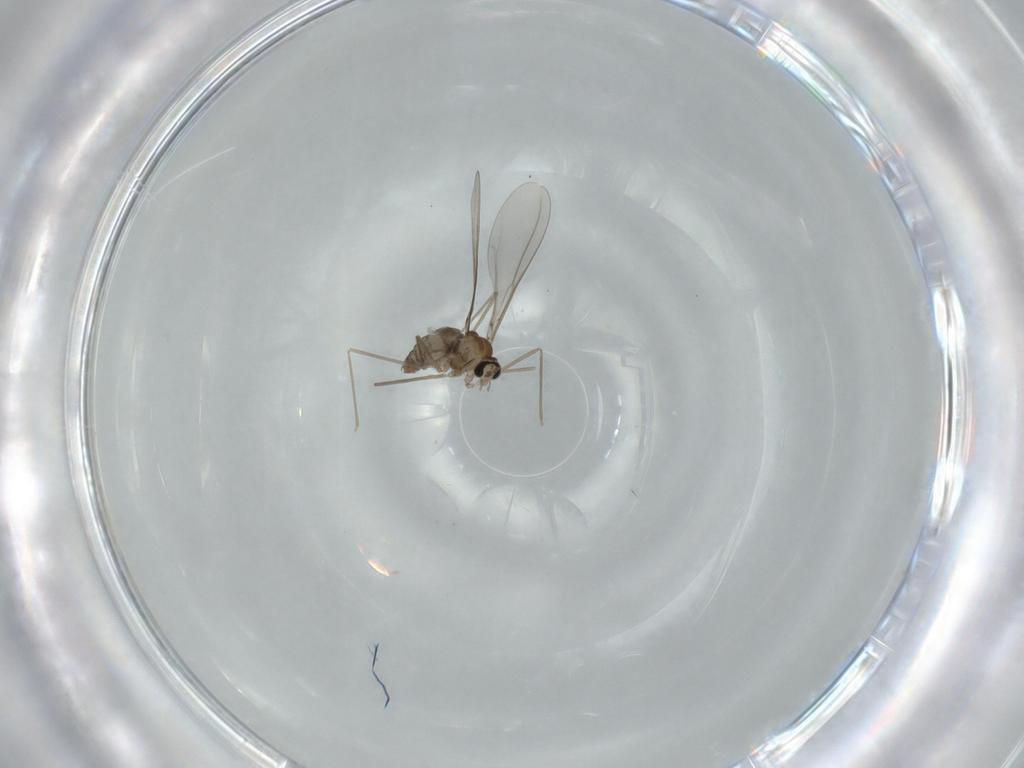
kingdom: Animalia
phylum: Arthropoda
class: Insecta
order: Diptera
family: Cecidomyiidae
